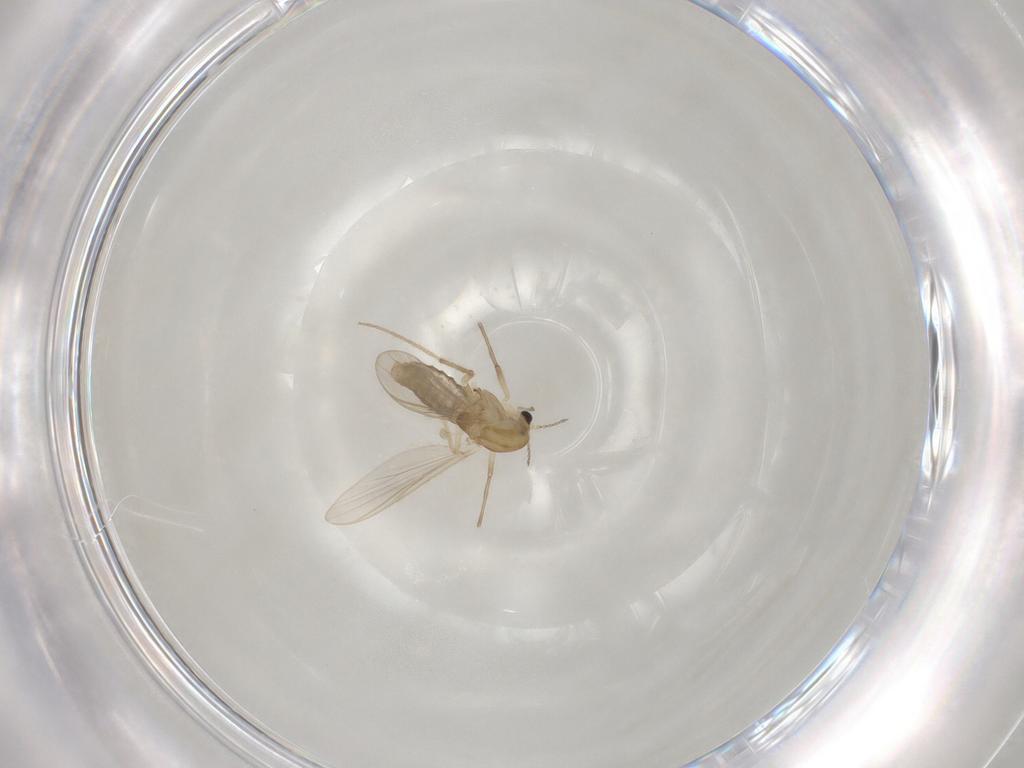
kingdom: Animalia
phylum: Arthropoda
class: Insecta
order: Diptera
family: Chironomidae
